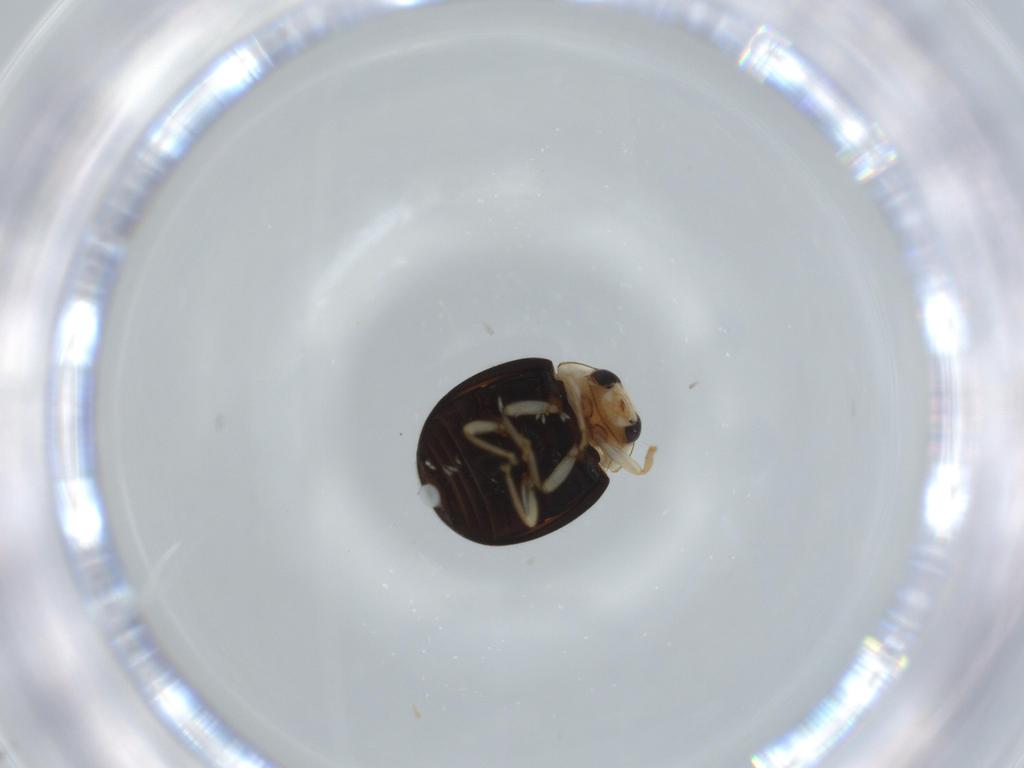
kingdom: Animalia
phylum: Arthropoda
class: Insecta
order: Coleoptera
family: Coccinellidae
